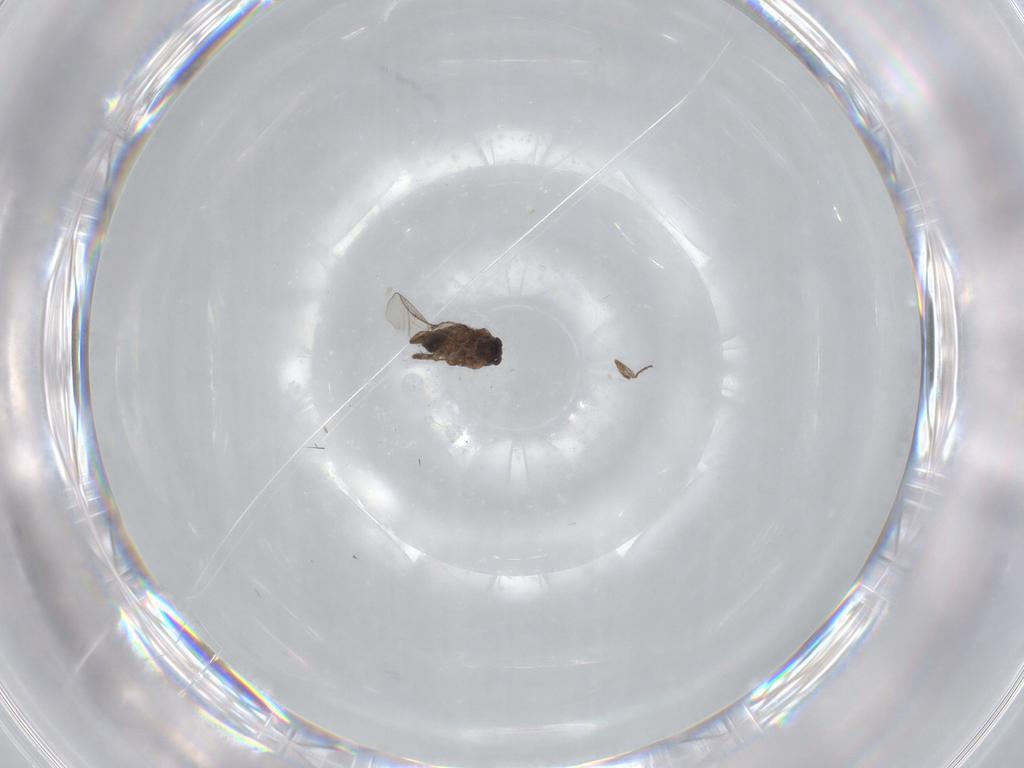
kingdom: Animalia
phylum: Arthropoda
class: Insecta
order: Diptera
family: Sphaeroceridae
